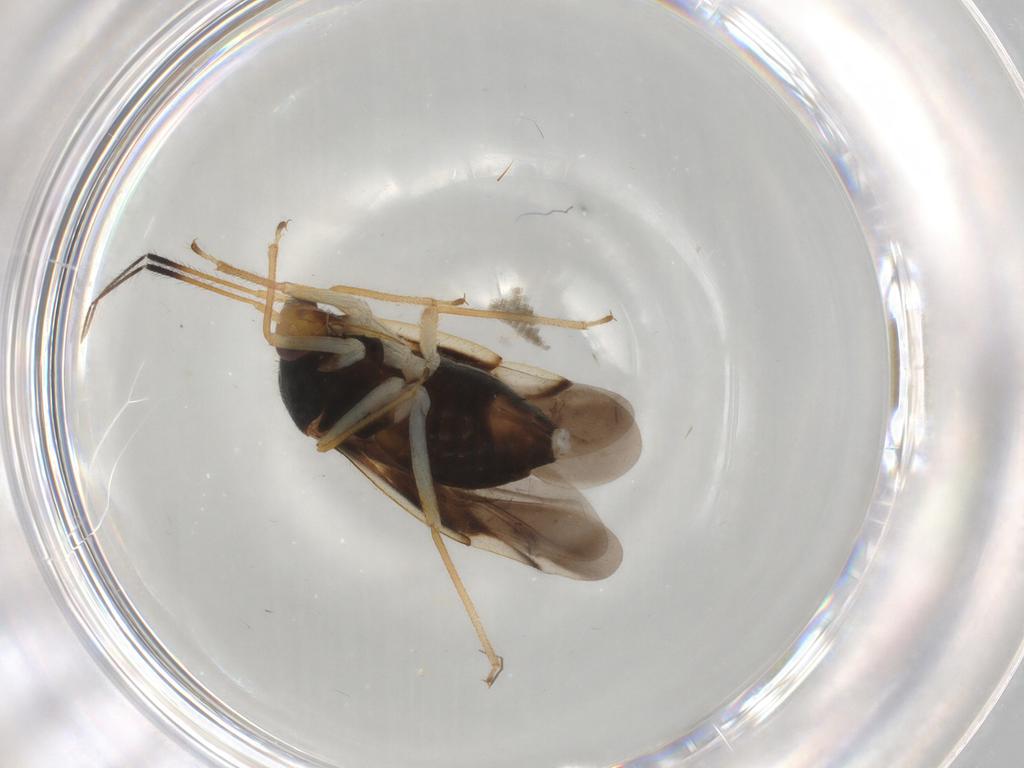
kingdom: Animalia
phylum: Arthropoda
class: Insecta
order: Hemiptera
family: Miridae
